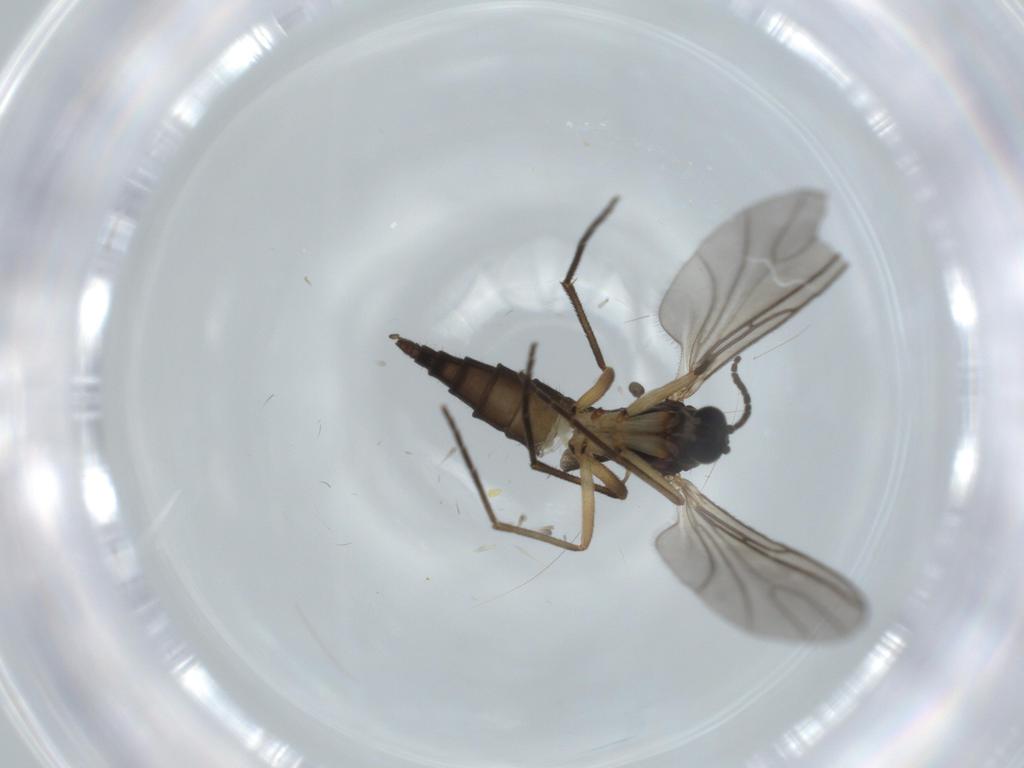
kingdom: Animalia
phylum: Arthropoda
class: Insecta
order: Diptera
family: Sciaridae
